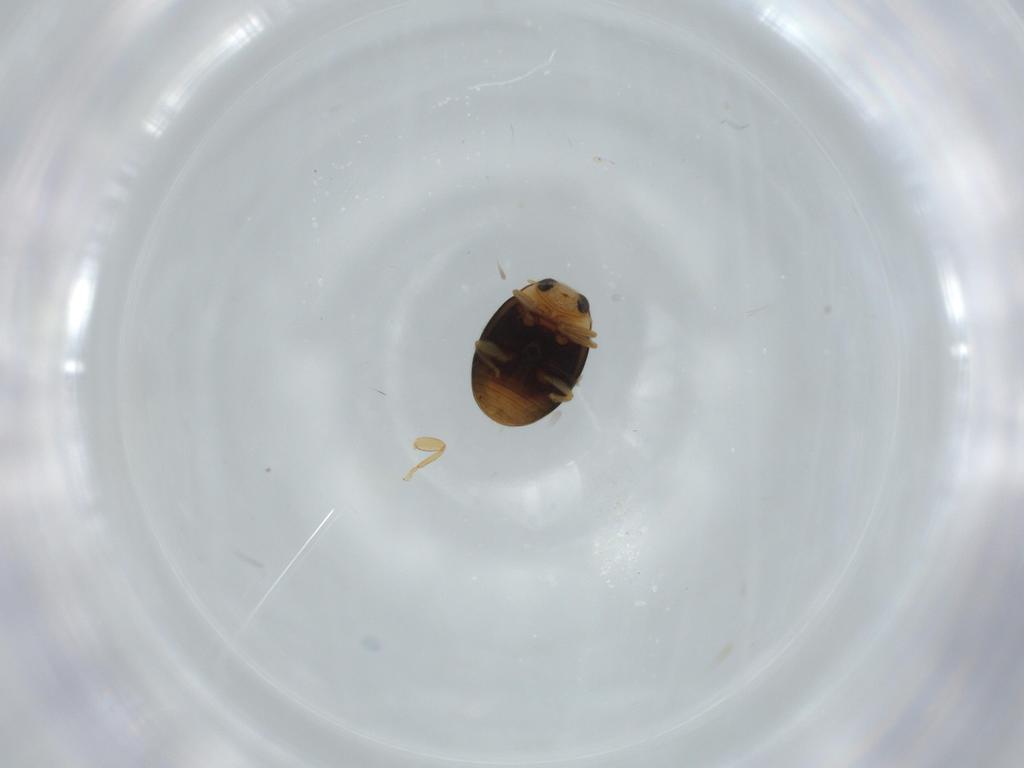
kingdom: Animalia
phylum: Arthropoda
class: Insecta
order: Coleoptera
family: Coccinellidae
